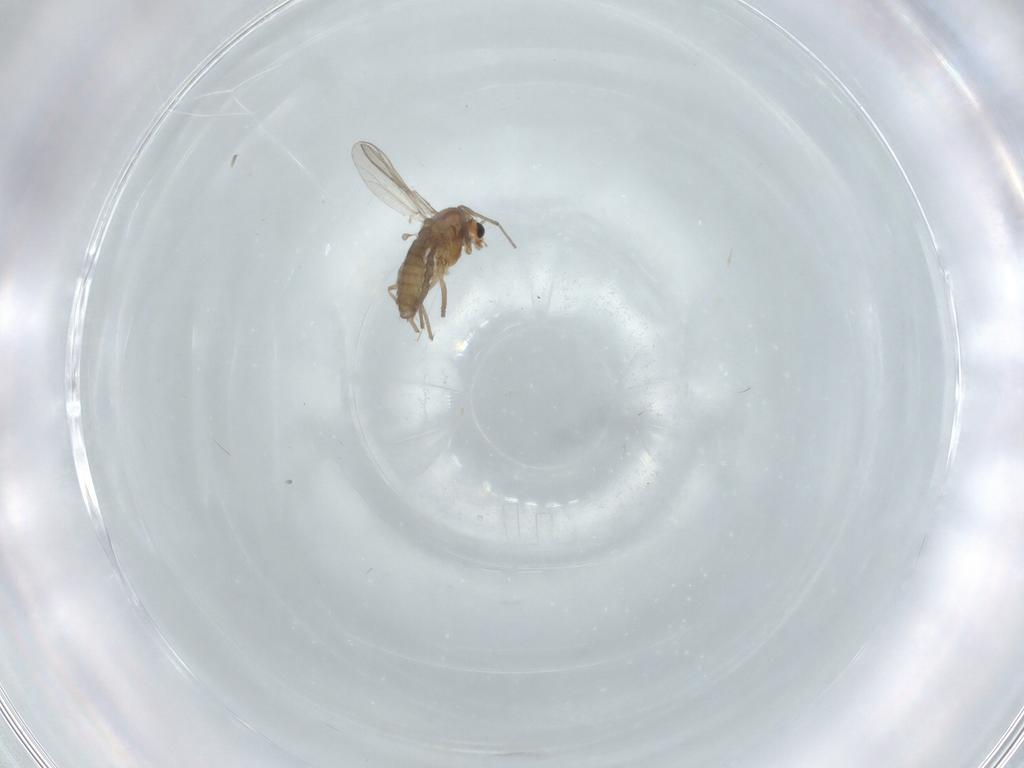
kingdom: Animalia
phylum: Arthropoda
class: Insecta
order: Diptera
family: Chironomidae
